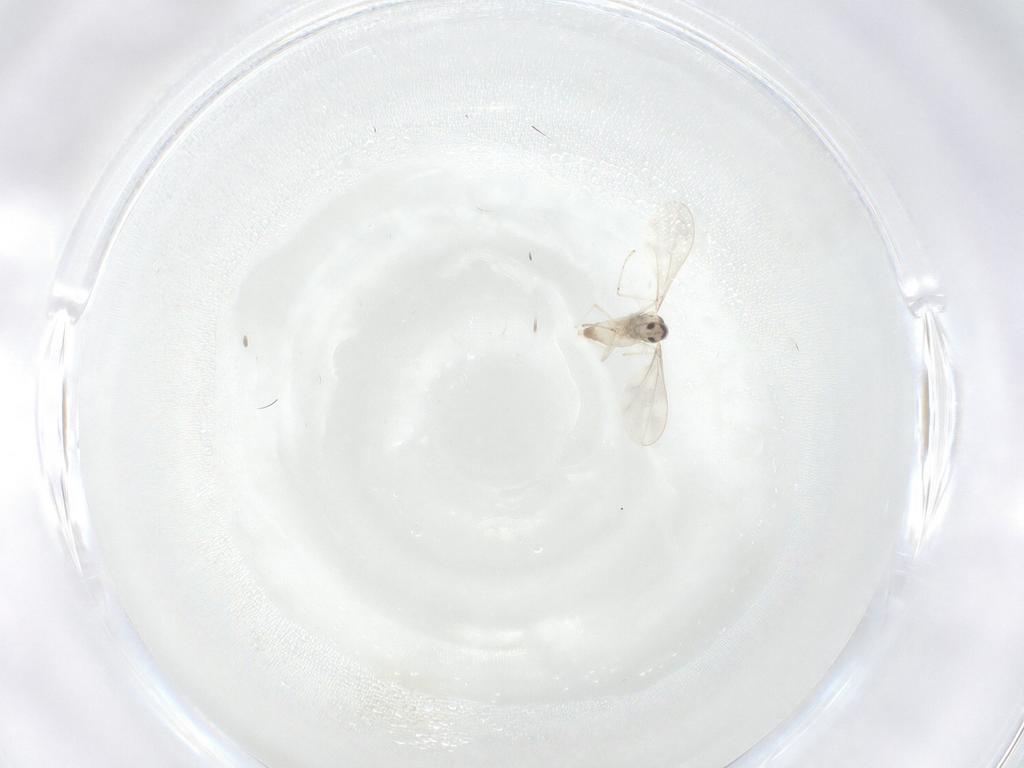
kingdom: Animalia
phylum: Arthropoda
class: Insecta
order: Diptera
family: Cecidomyiidae
